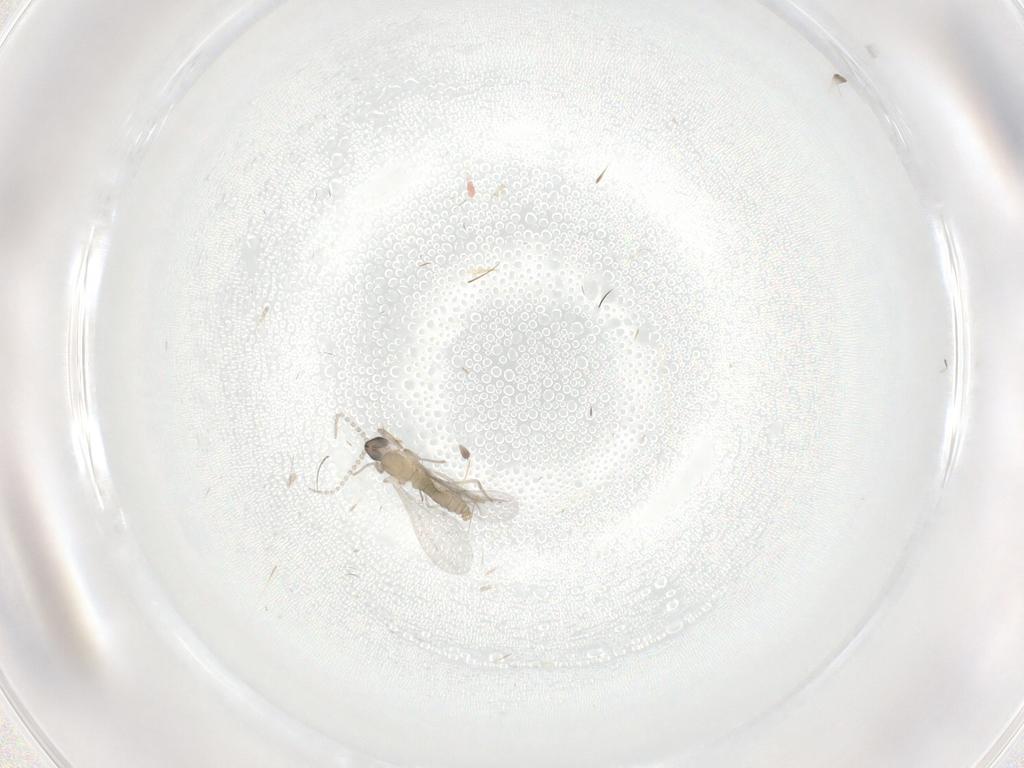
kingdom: Animalia
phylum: Arthropoda
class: Insecta
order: Diptera
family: Cecidomyiidae
